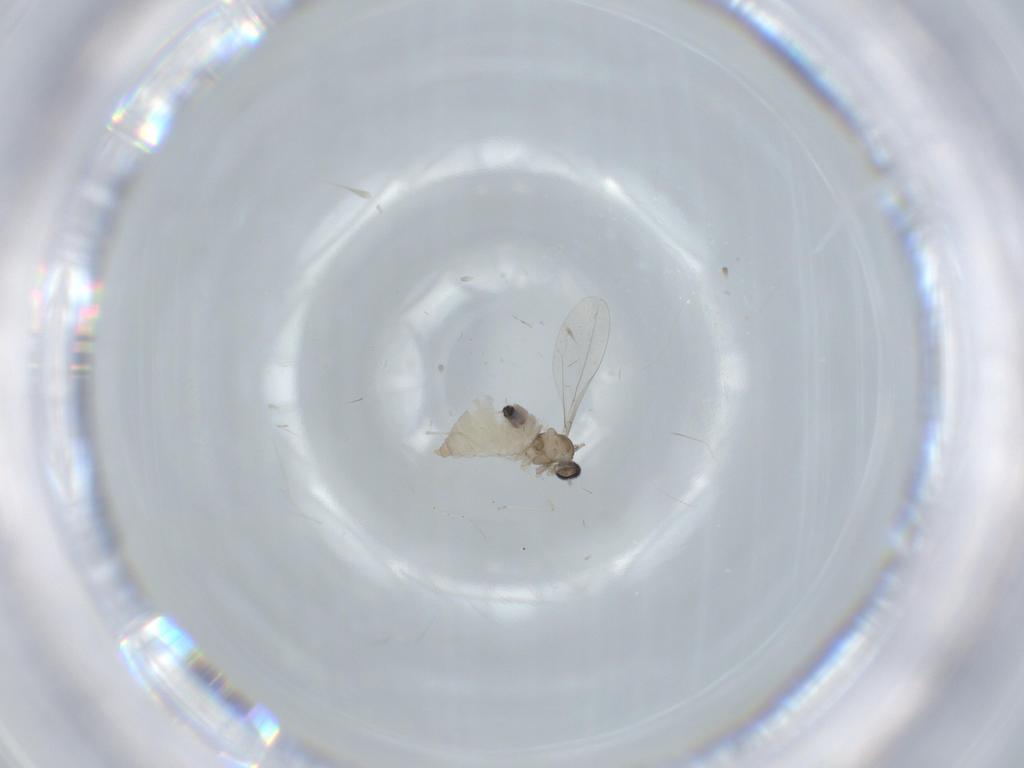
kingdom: Animalia
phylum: Arthropoda
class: Insecta
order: Diptera
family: Cecidomyiidae
